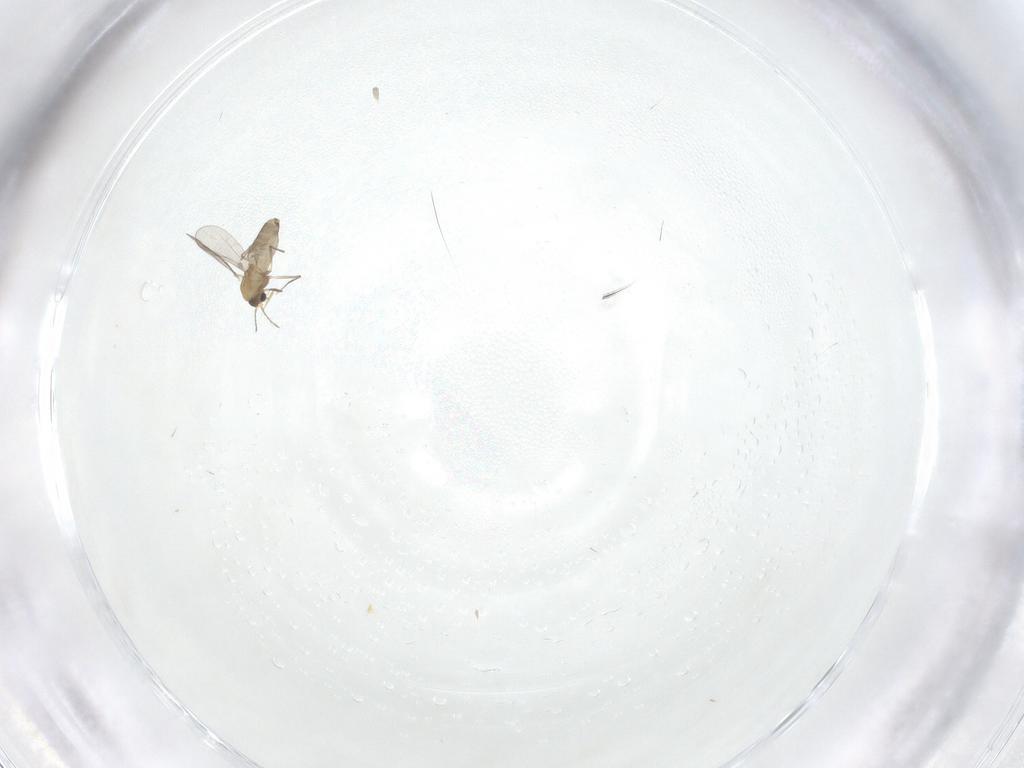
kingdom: Animalia
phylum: Arthropoda
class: Insecta
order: Diptera
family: Chironomidae
